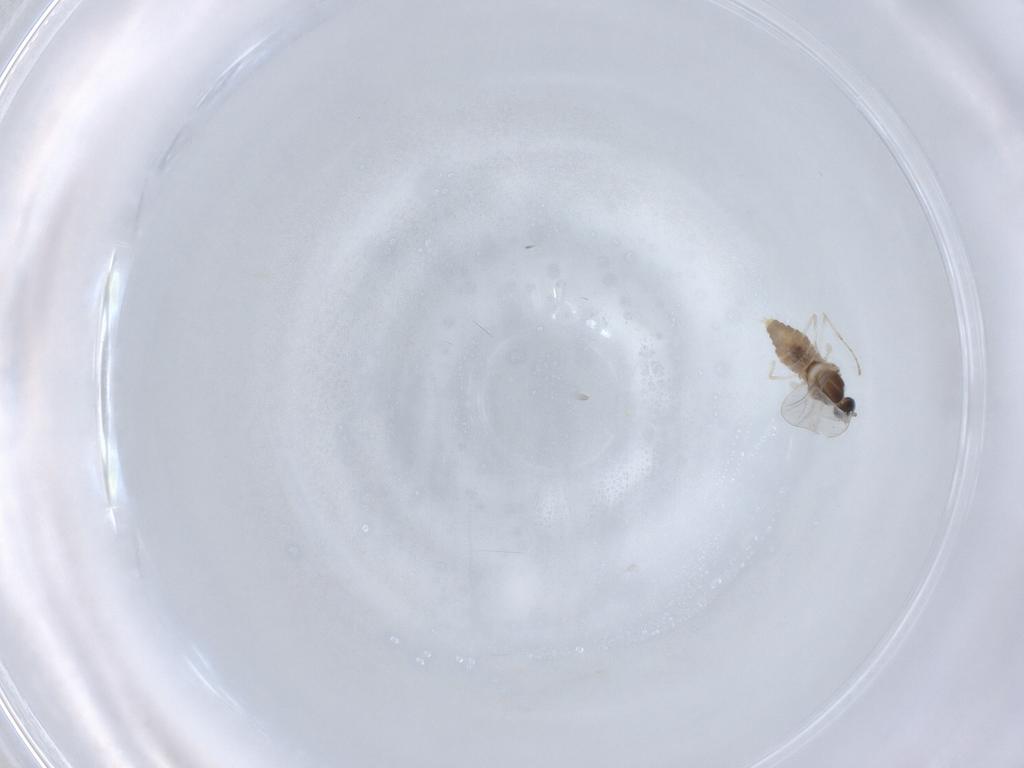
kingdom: Animalia
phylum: Arthropoda
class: Insecta
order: Diptera
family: Cecidomyiidae
